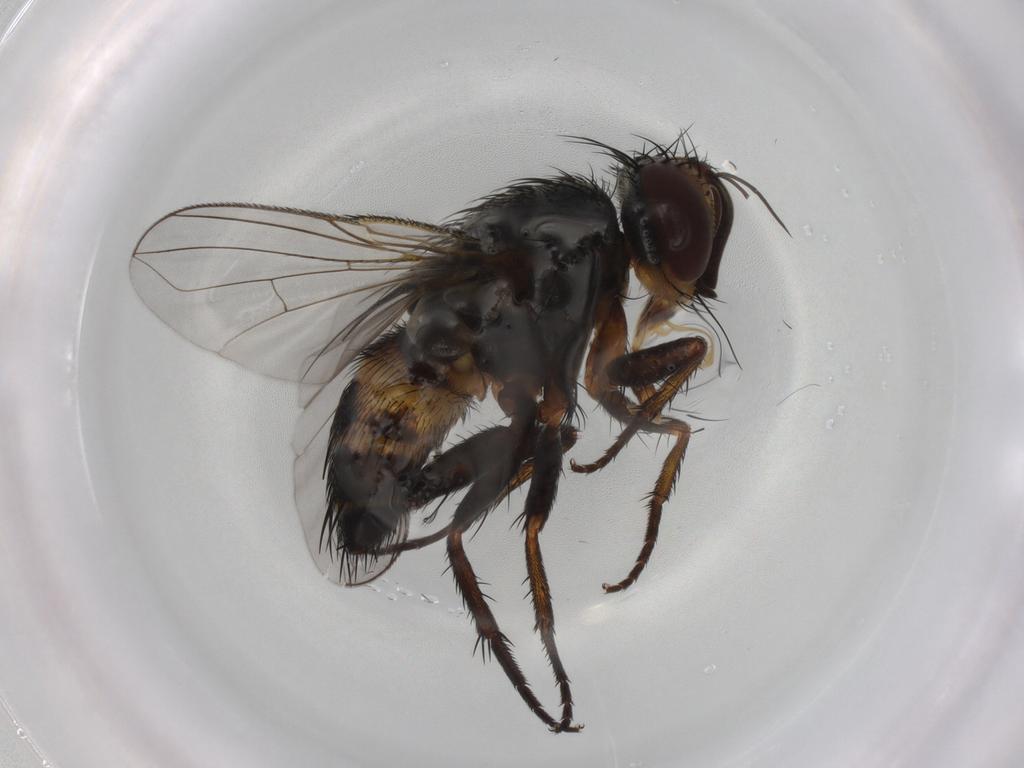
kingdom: Animalia
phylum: Arthropoda
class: Insecta
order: Diptera
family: Tachinidae
